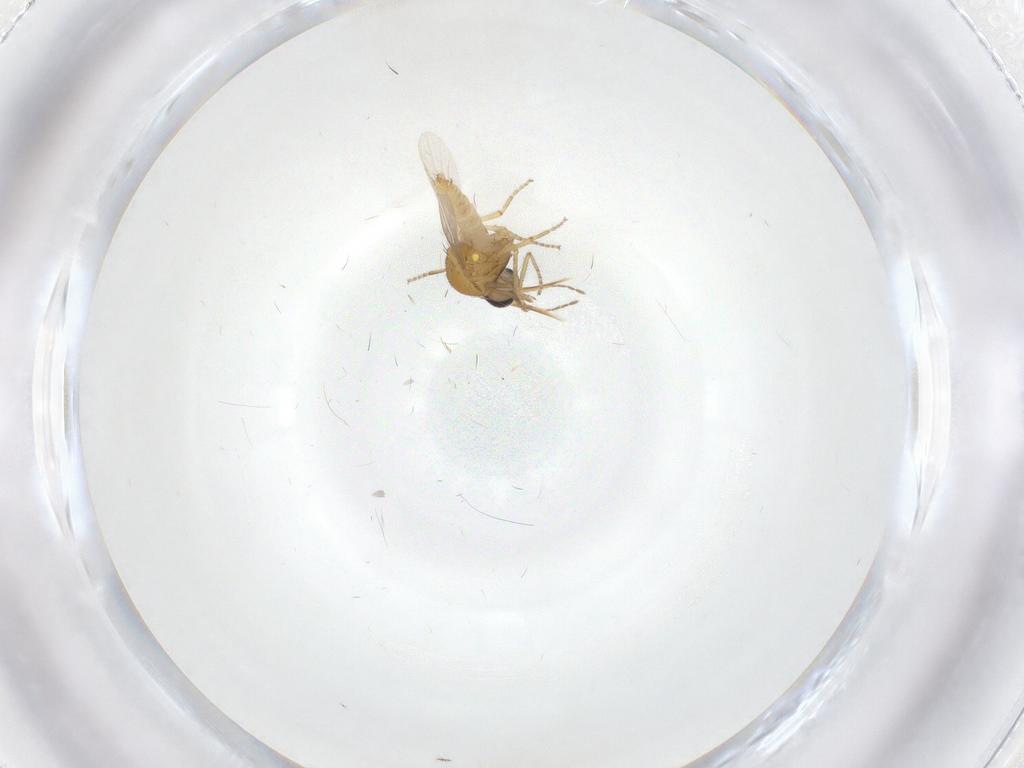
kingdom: Animalia
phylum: Arthropoda
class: Insecta
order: Diptera
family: Ceratopogonidae
